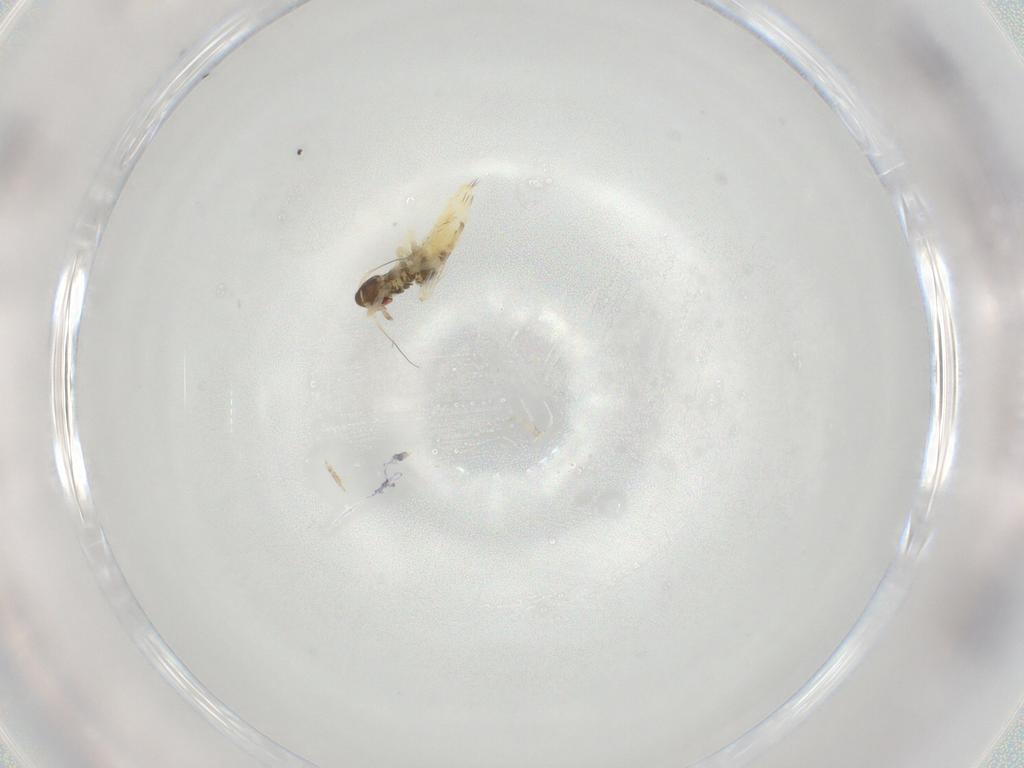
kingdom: Animalia
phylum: Arthropoda
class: Insecta
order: Hemiptera
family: Cicadellidae
